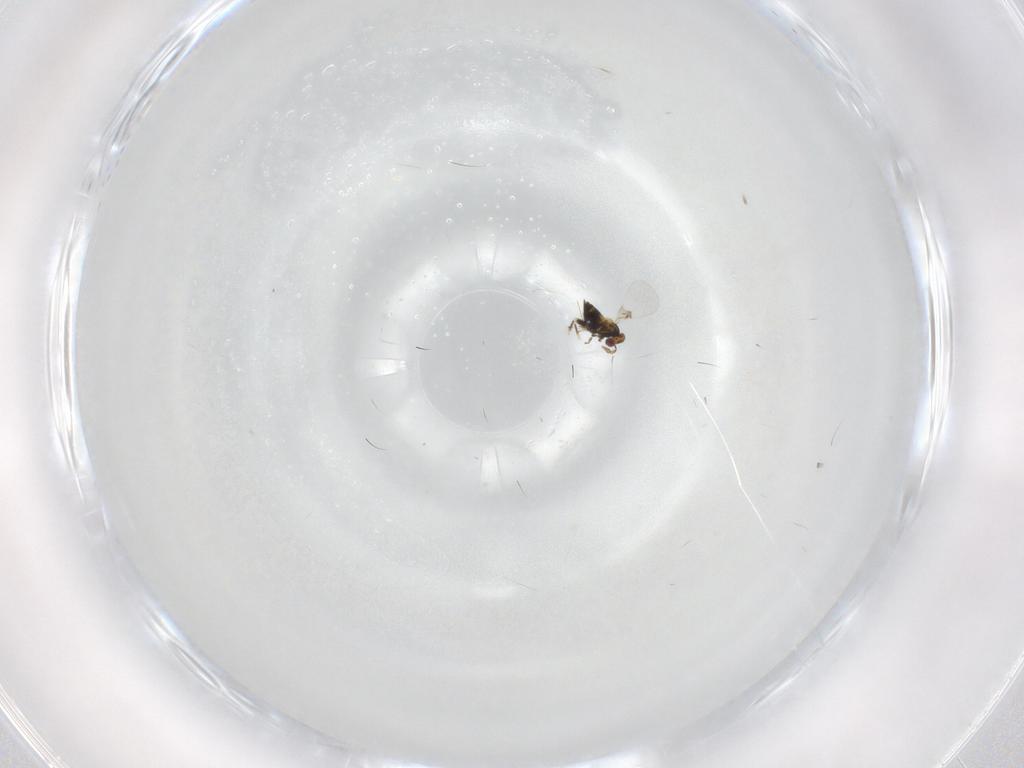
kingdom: Animalia
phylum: Arthropoda
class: Insecta
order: Hymenoptera
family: Trichogrammatidae
